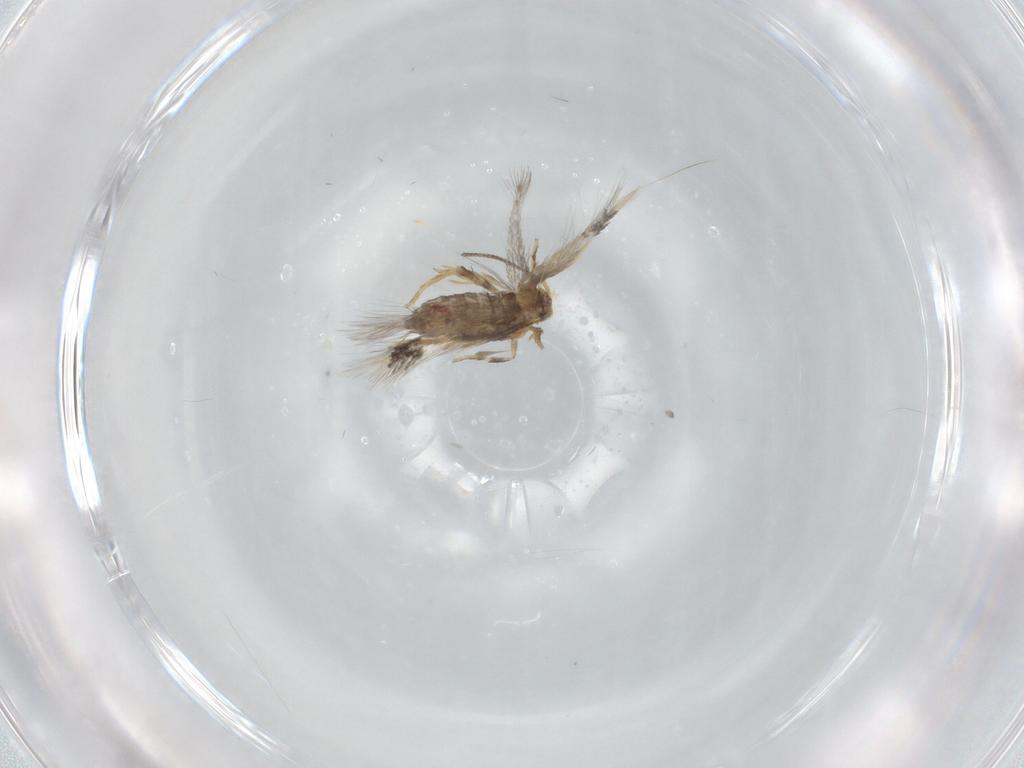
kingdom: Animalia
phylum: Arthropoda
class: Insecta
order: Lepidoptera
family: Nepticulidae
